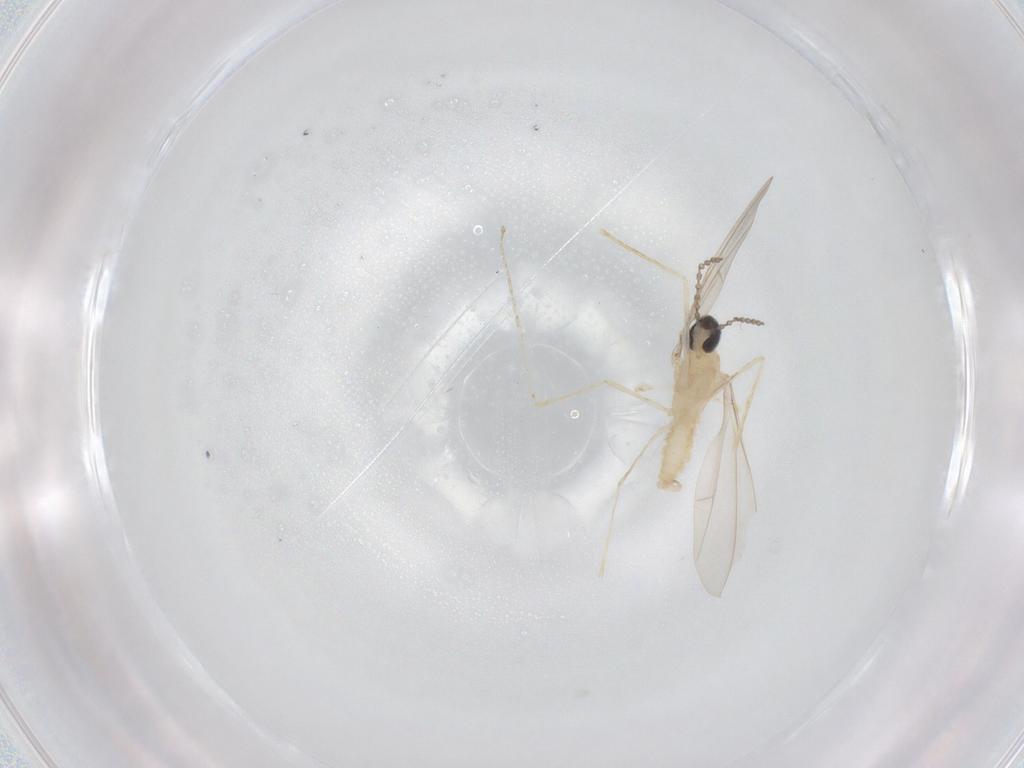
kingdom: Animalia
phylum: Arthropoda
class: Insecta
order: Diptera
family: Cecidomyiidae
